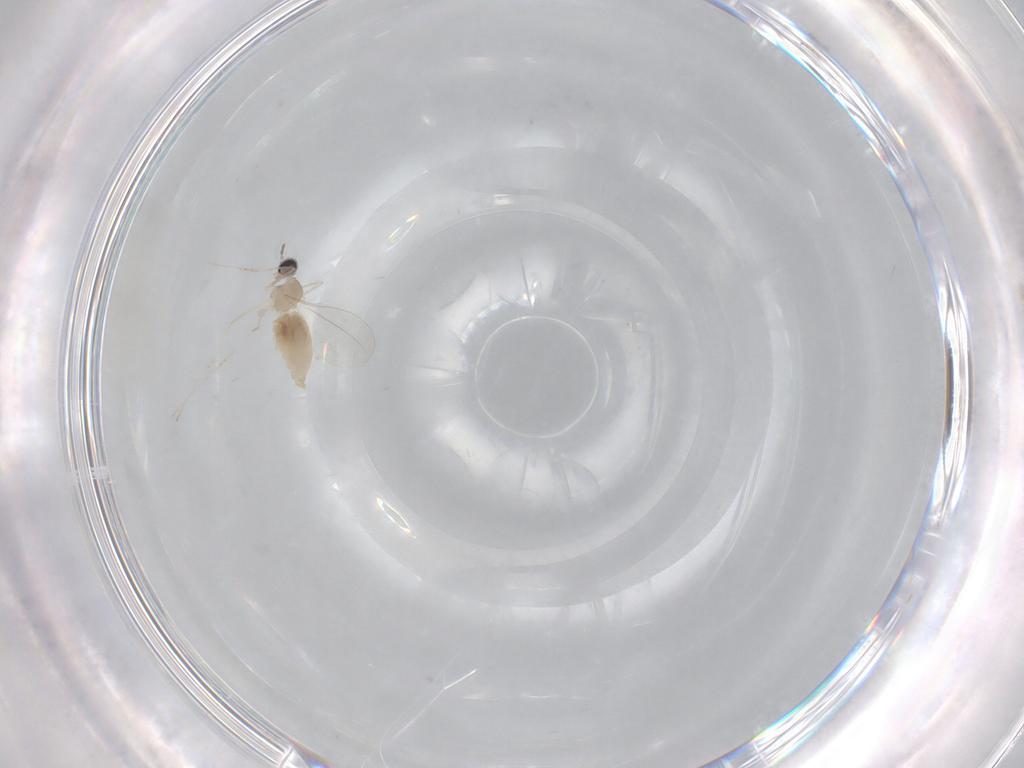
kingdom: Animalia
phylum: Arthropoda
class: Insecta
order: Diptera
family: Cecidomyiidae
